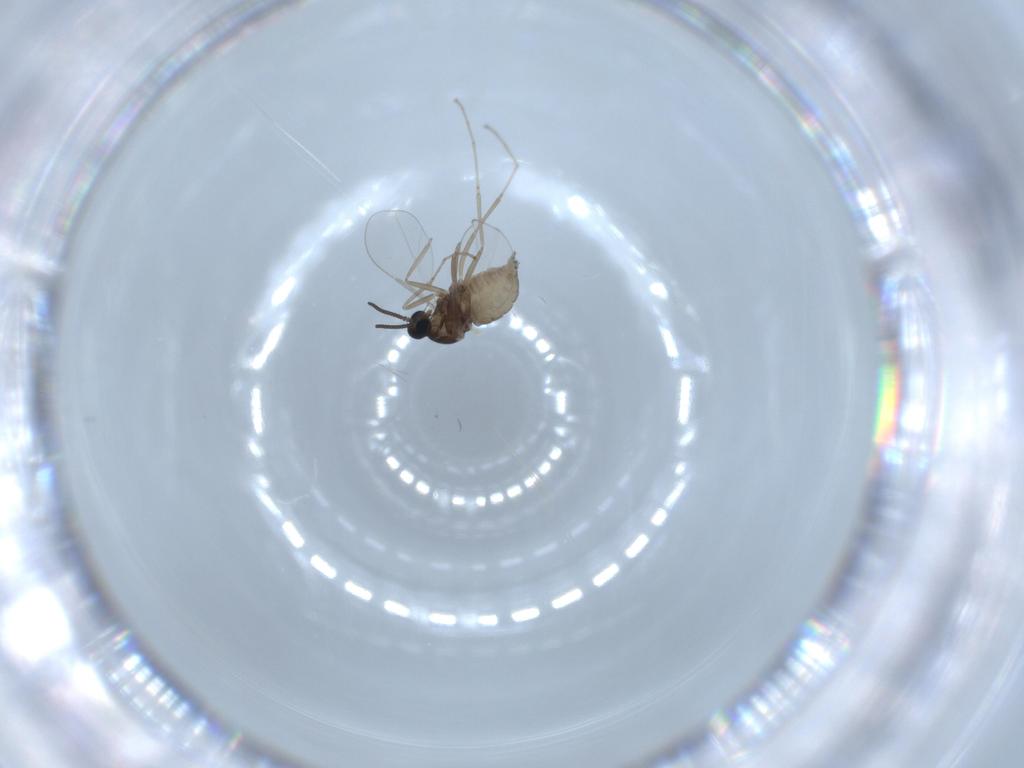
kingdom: Animalia
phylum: Arthropoda
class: Insecta
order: Diptera
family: Cecidomyiidae
